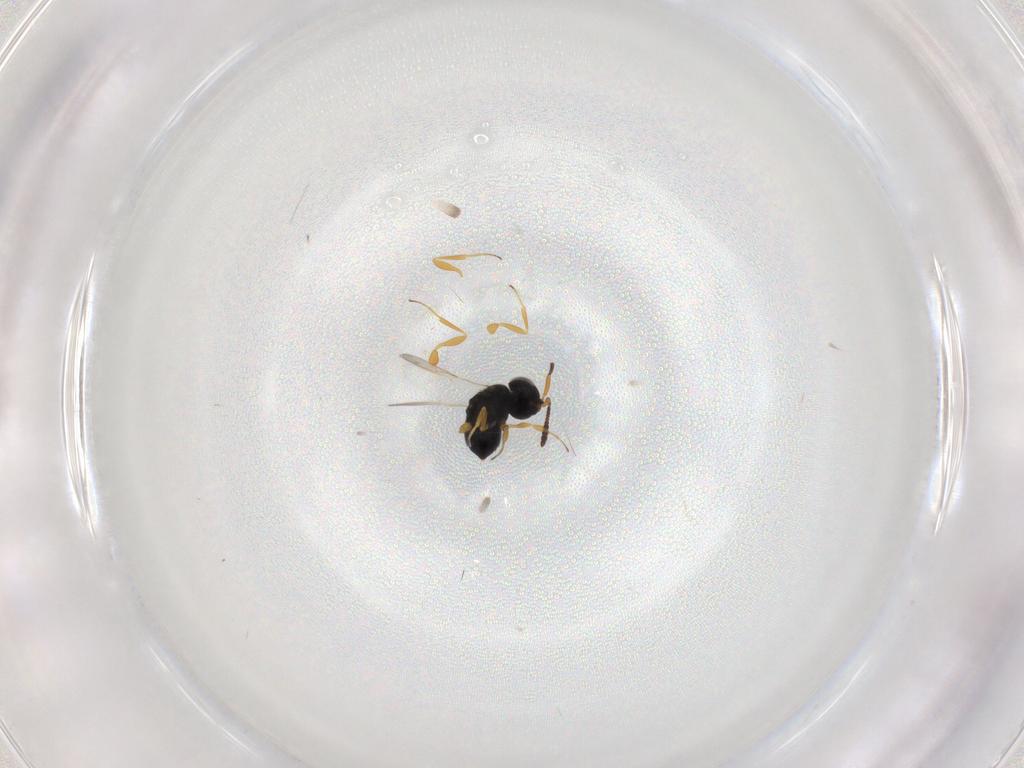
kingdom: Animalia
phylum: Arthropoda
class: Insecta
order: Hymenoptera
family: Scelionidae
